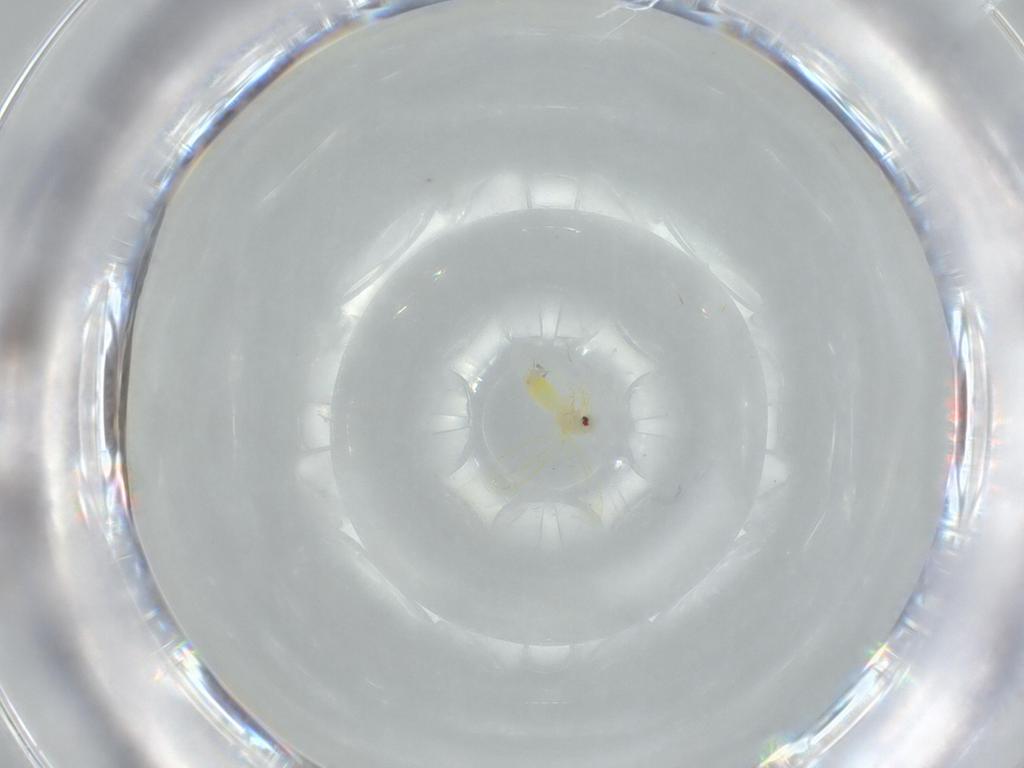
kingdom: Animalia
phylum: Arthropoda
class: Insecta
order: Hemiptera
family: Aleyrodidae
